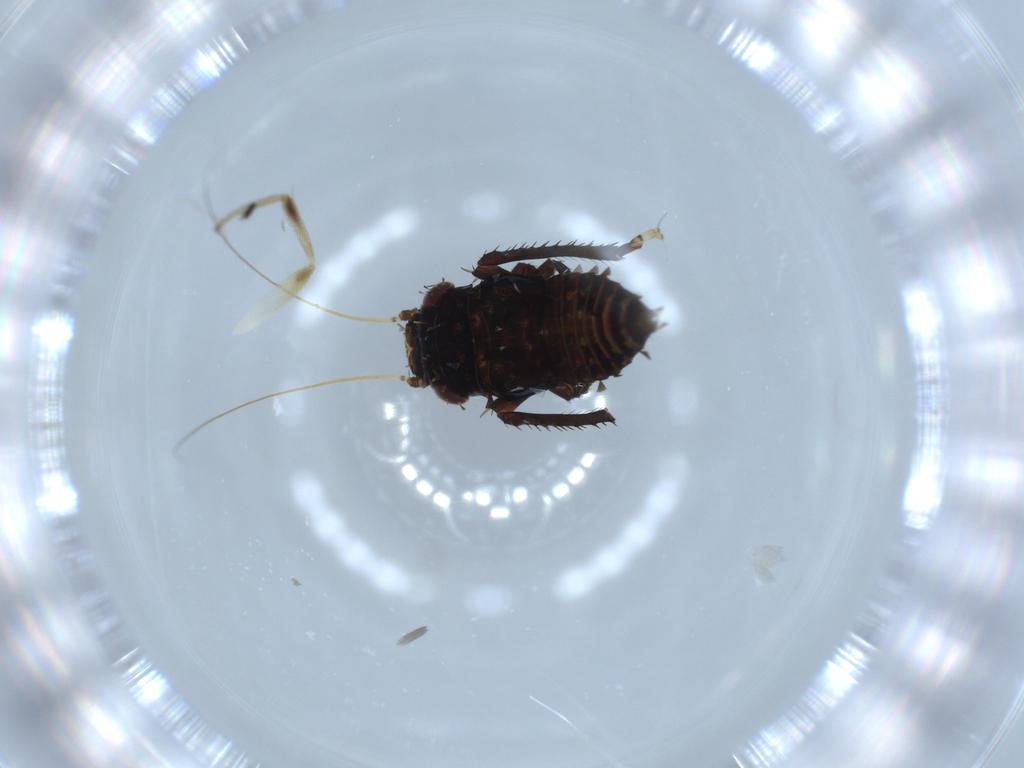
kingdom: Animalia
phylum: Arthropoda
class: Insecta
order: Hemiptera
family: Cicadellidae
